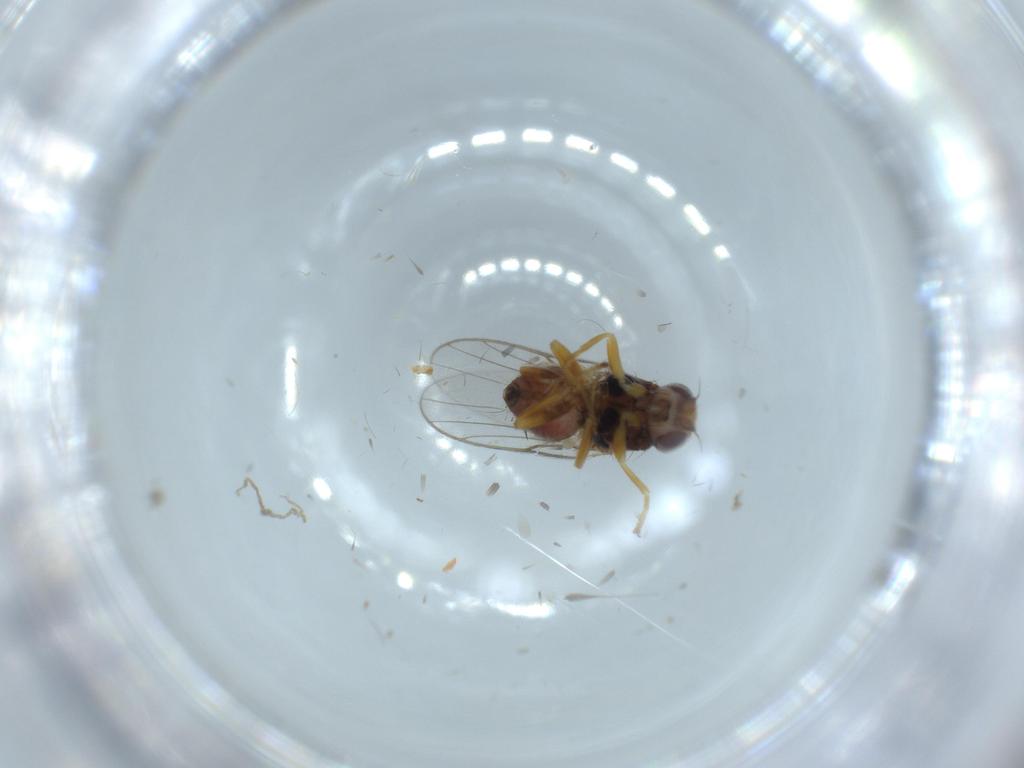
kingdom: Animalia
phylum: Arthropoda
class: Insecta
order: Diptera
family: Chloropidae
